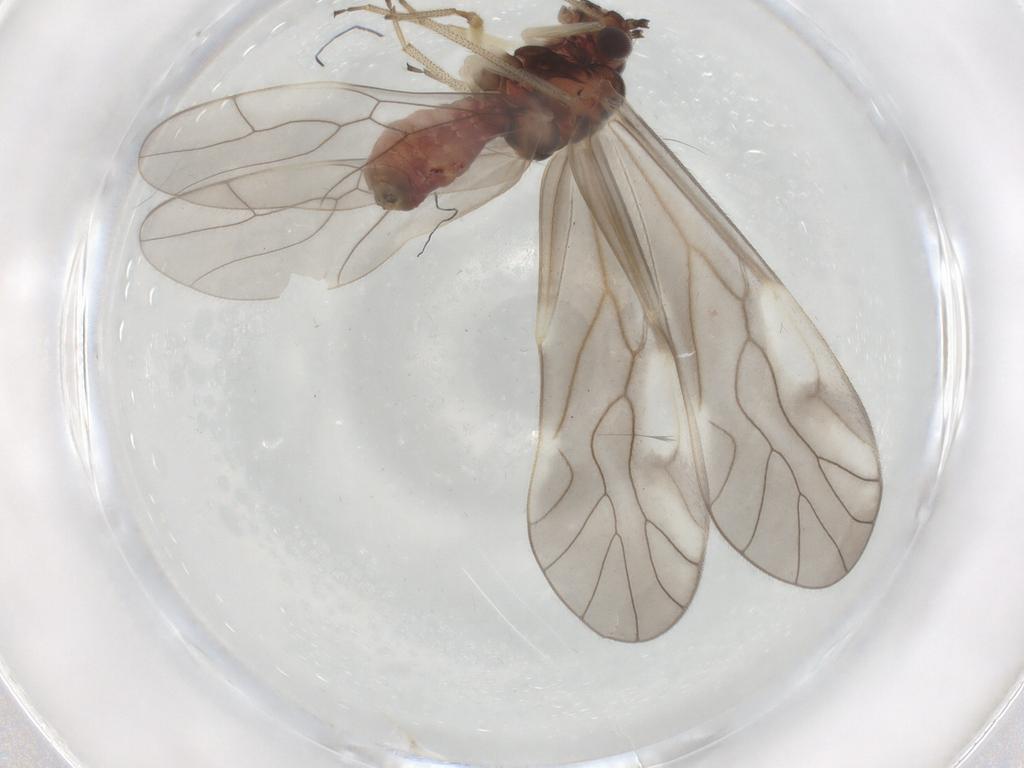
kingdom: Animalia
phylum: Arthropoda
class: Insecta
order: Psocodea
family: Caeciliusidae
